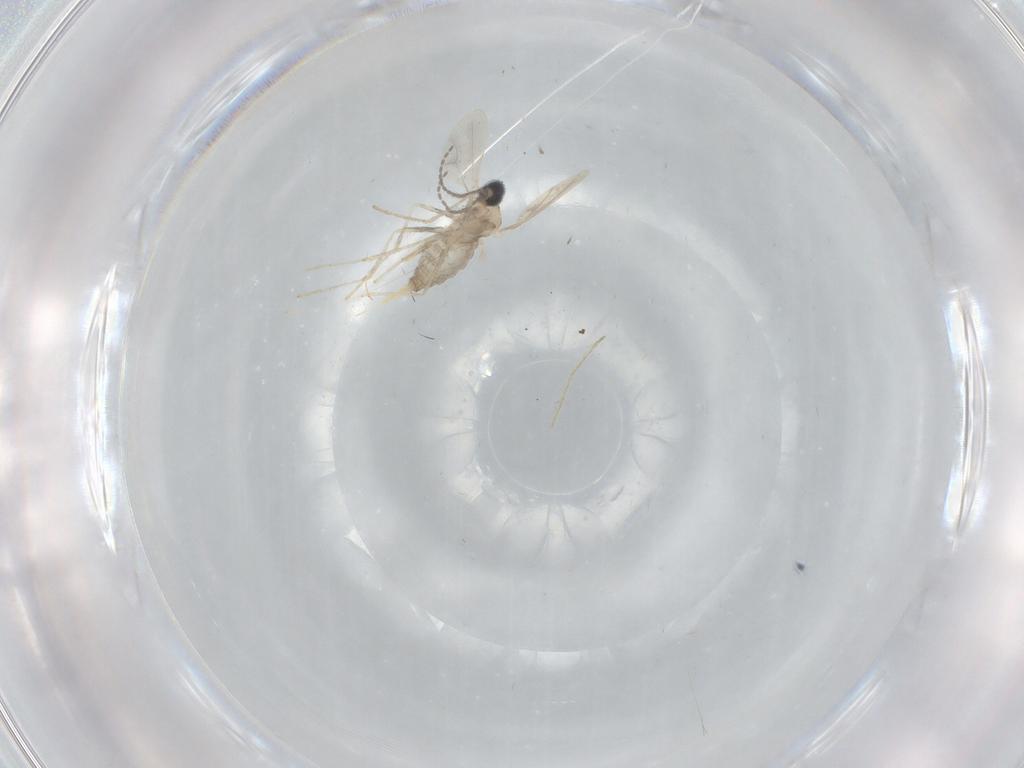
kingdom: Animalia
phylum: Arthropoda
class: Insecta
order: Diptera
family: Cecidomyiidae
